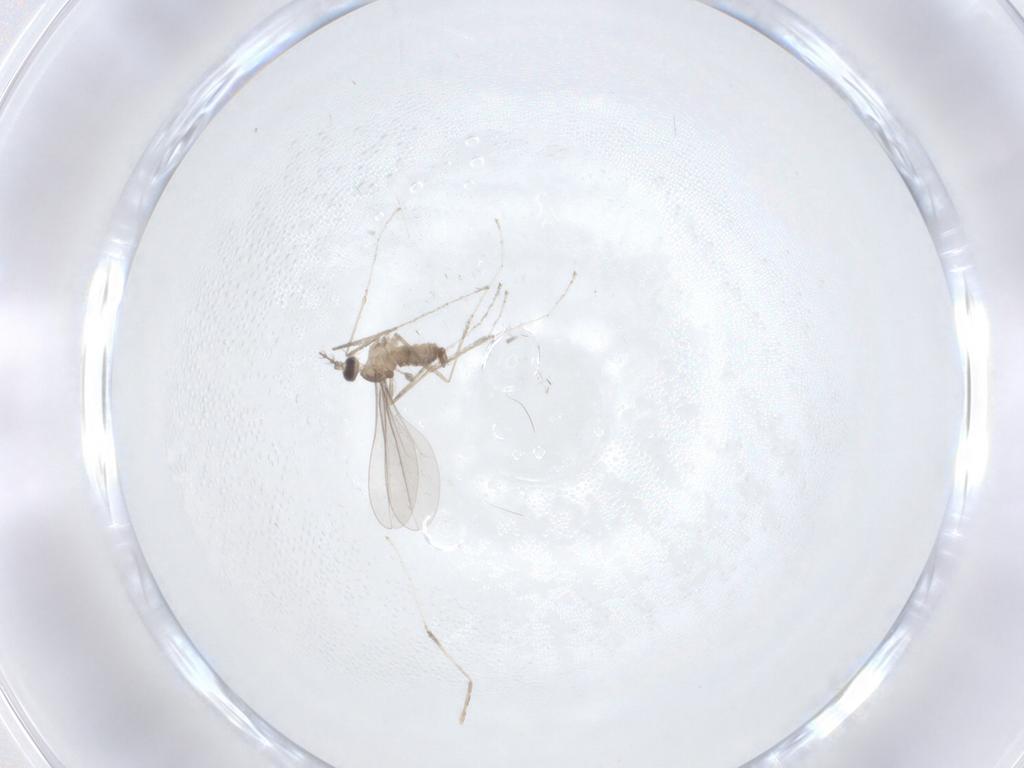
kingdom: Animalia
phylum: Arthropoda
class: Insecta
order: Diptera
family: Cecidomyiidae
